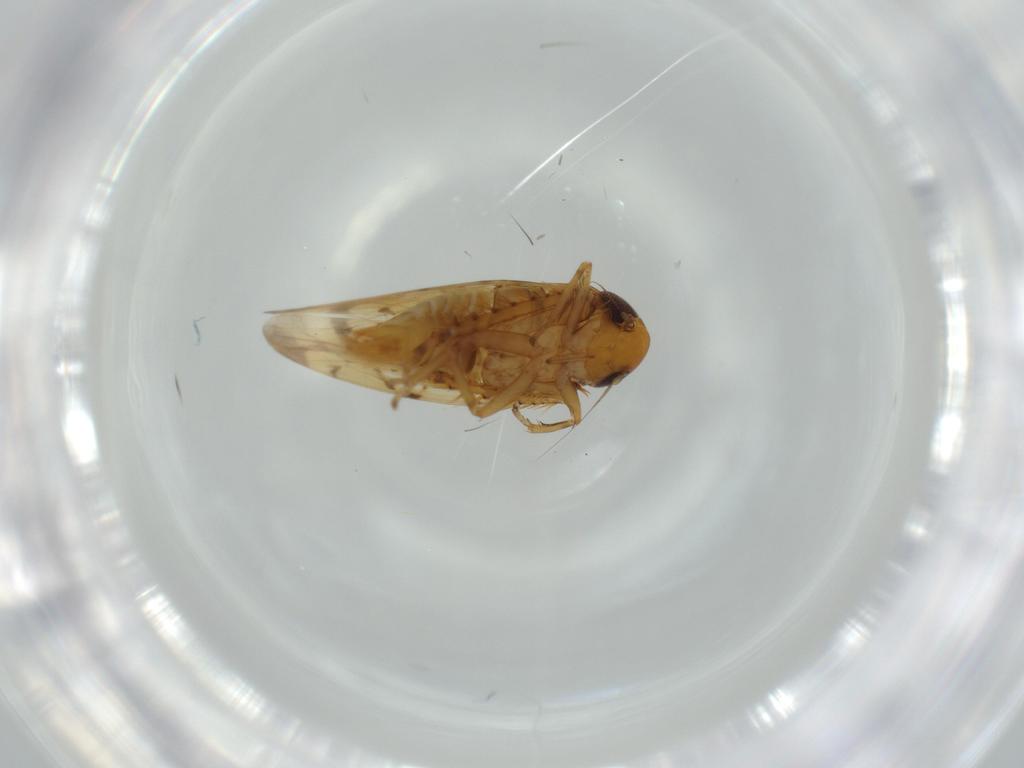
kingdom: Animalia
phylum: Arthropoda
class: Insecta
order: Hemiptera
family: Cicadellidae
